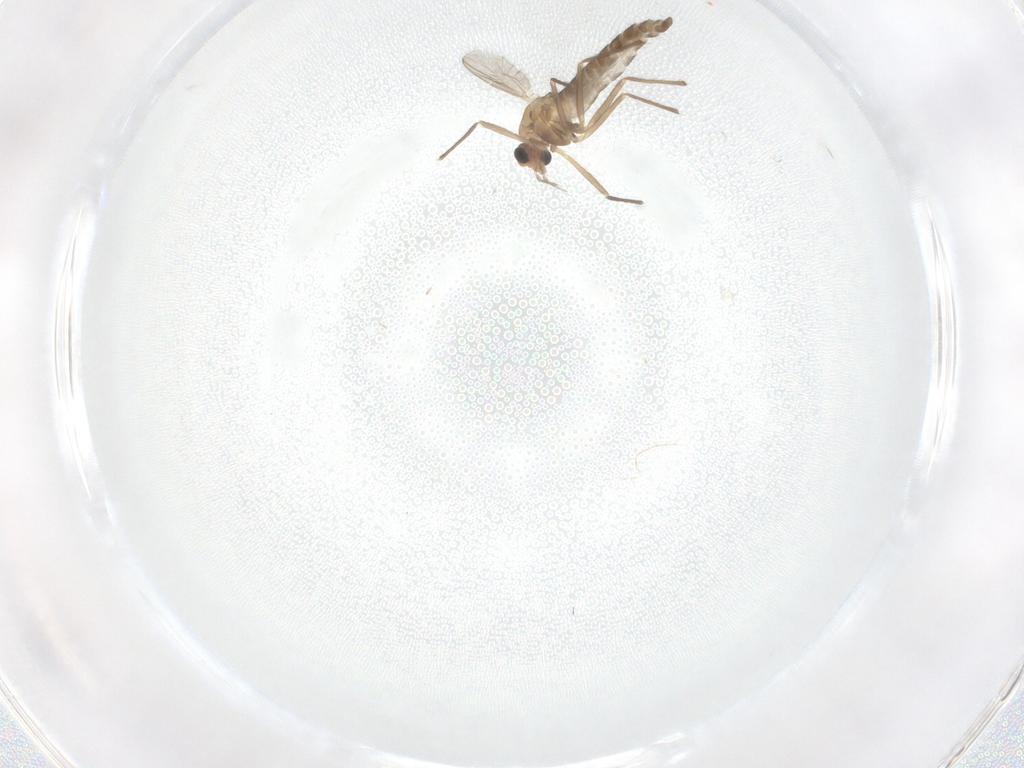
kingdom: Animalia
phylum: Arthropoda
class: Insecta
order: Diptera
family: Chironomidae
